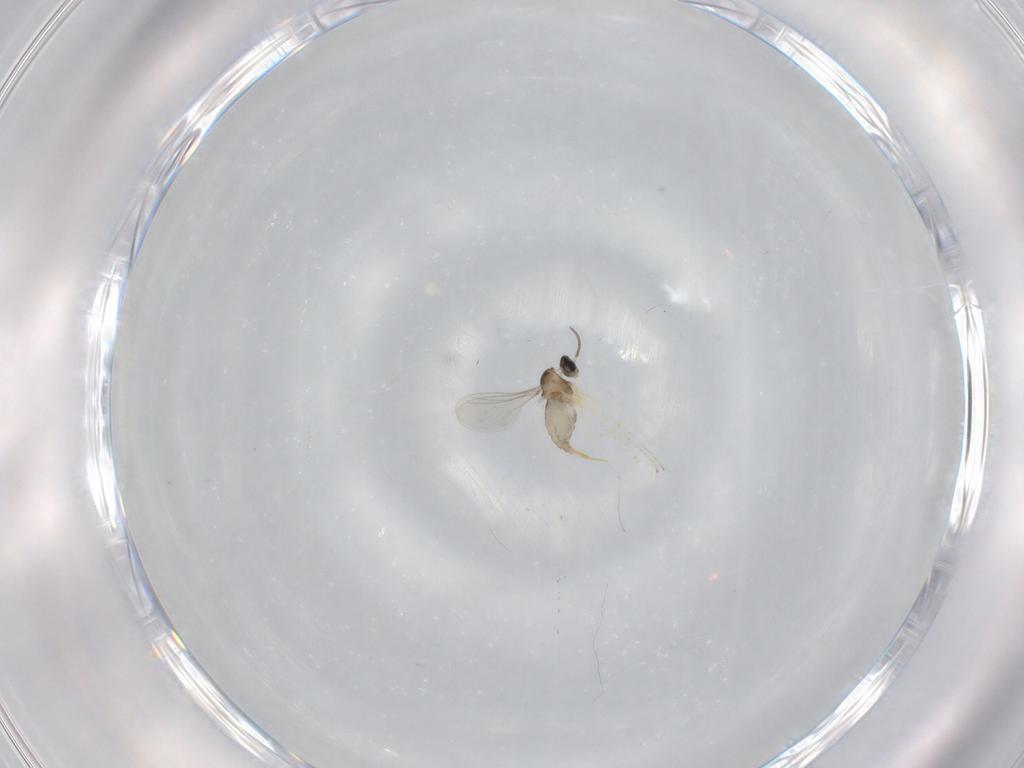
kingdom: Animalia
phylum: Arthropoda
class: Insecta
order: Diptera
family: Cecidomyiidae
